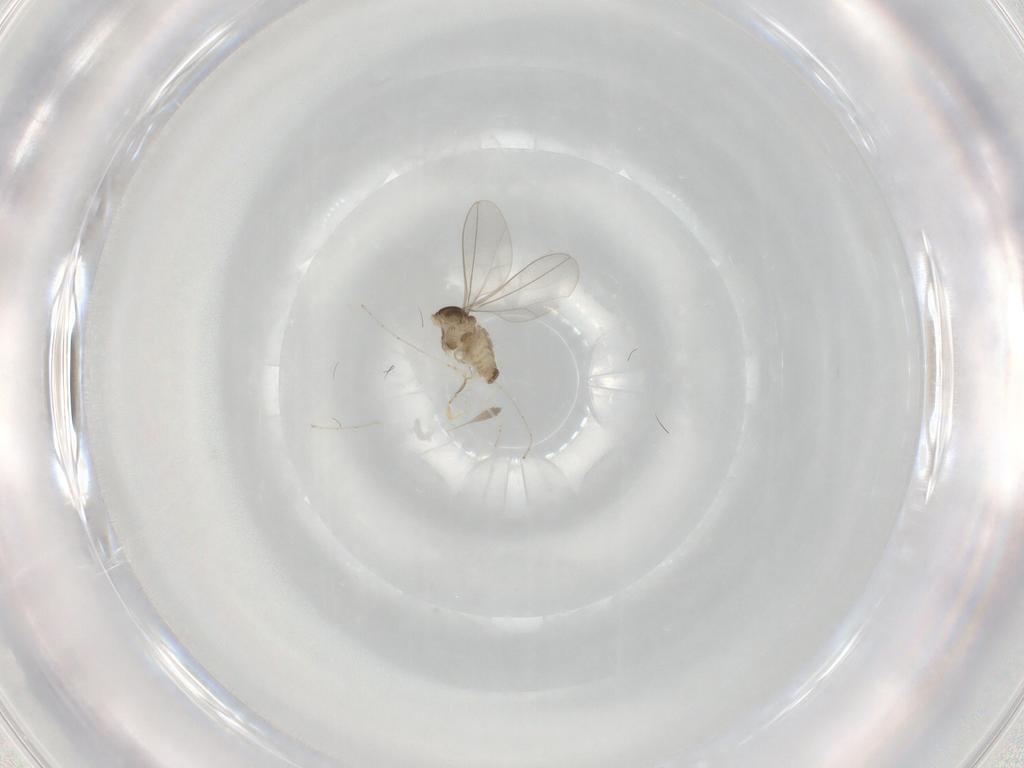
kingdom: Animalia
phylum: Arthropoda
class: Insecta
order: Diptera
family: Cecidomyiidae
